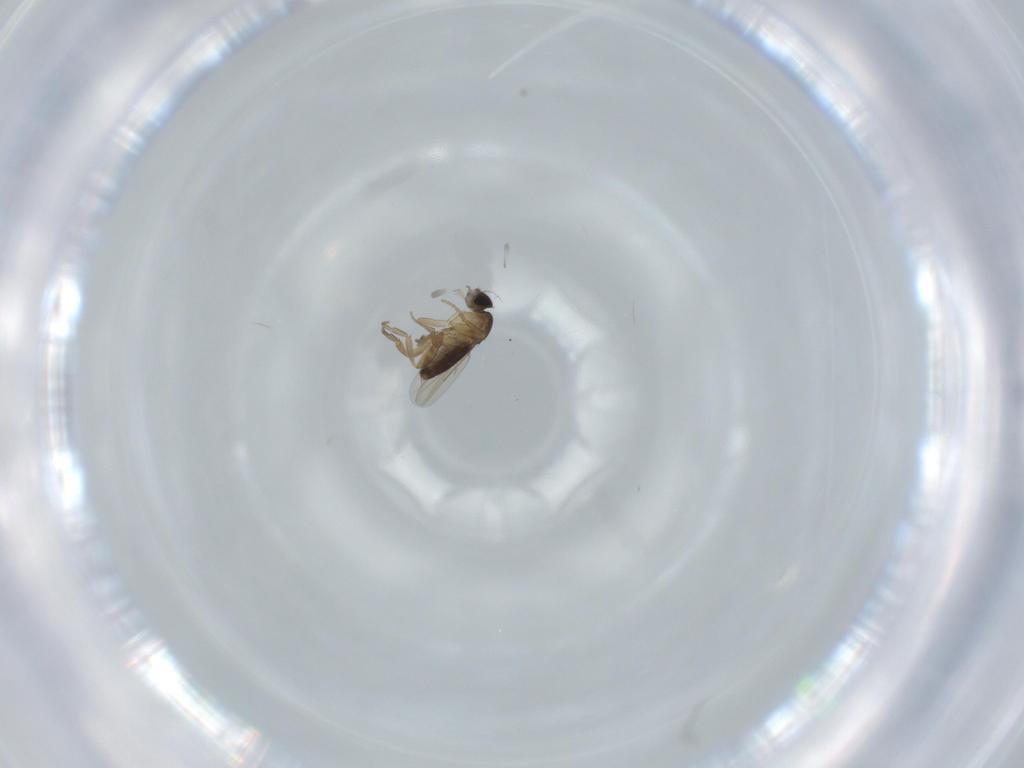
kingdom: Animalia
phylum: Arthropoda
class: Insecta
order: Diptera
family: Phoridae
